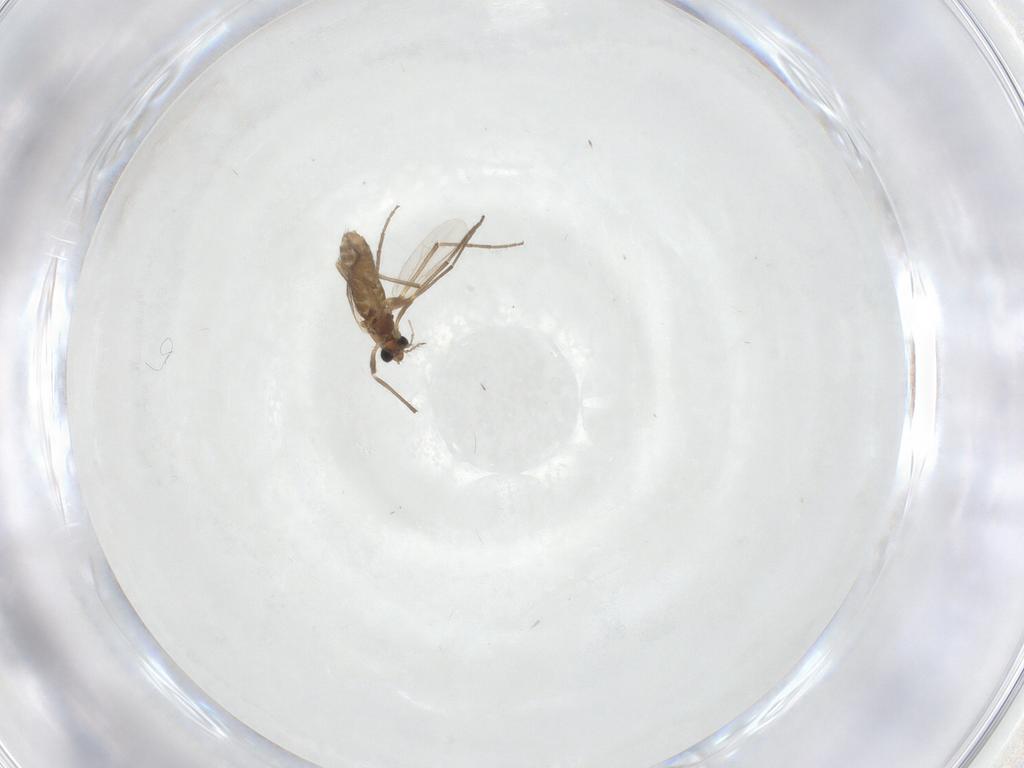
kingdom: Animalia
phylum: Arthropoda
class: Insecta
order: Diptera
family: Chironomidae
